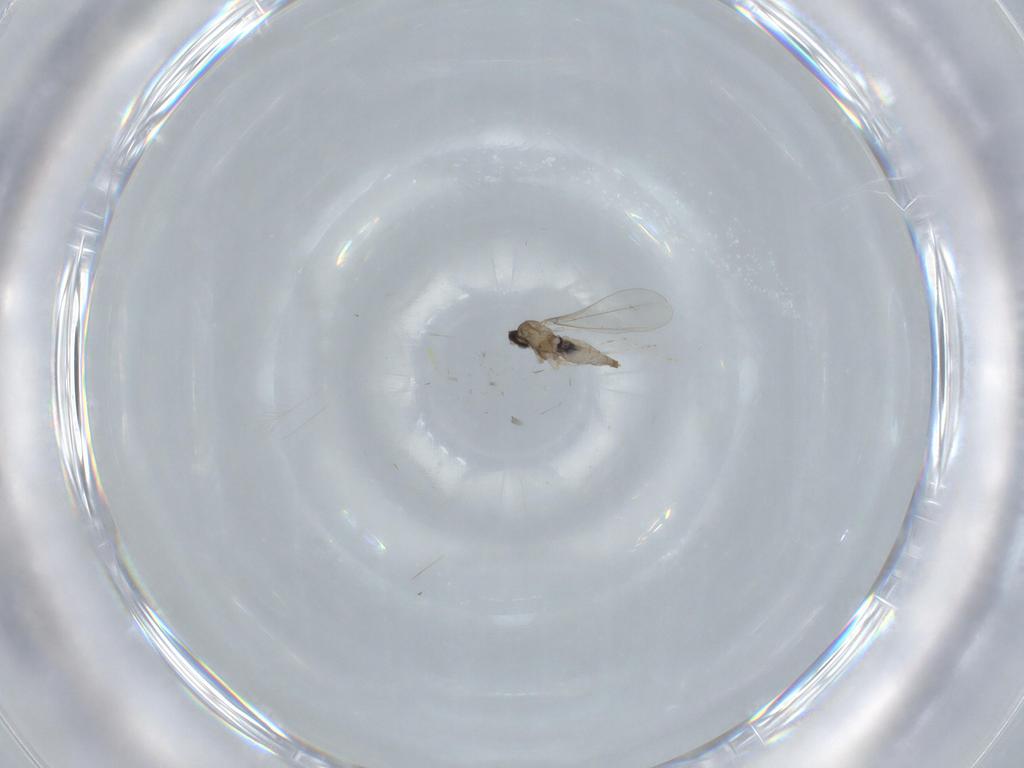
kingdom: Animalia
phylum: Arthropoda
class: Insecta
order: Diptera
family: Cecidomyiidae
